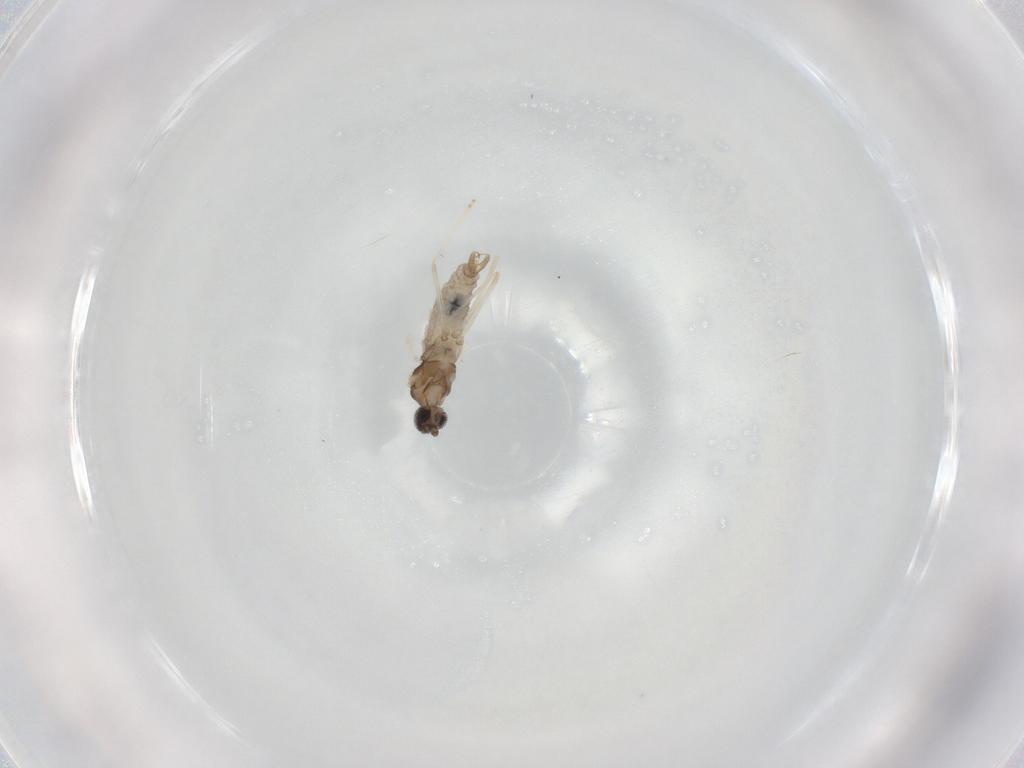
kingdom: Animalia
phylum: Arthropoda
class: Insecta
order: Diptera
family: Cecidomyiidae
